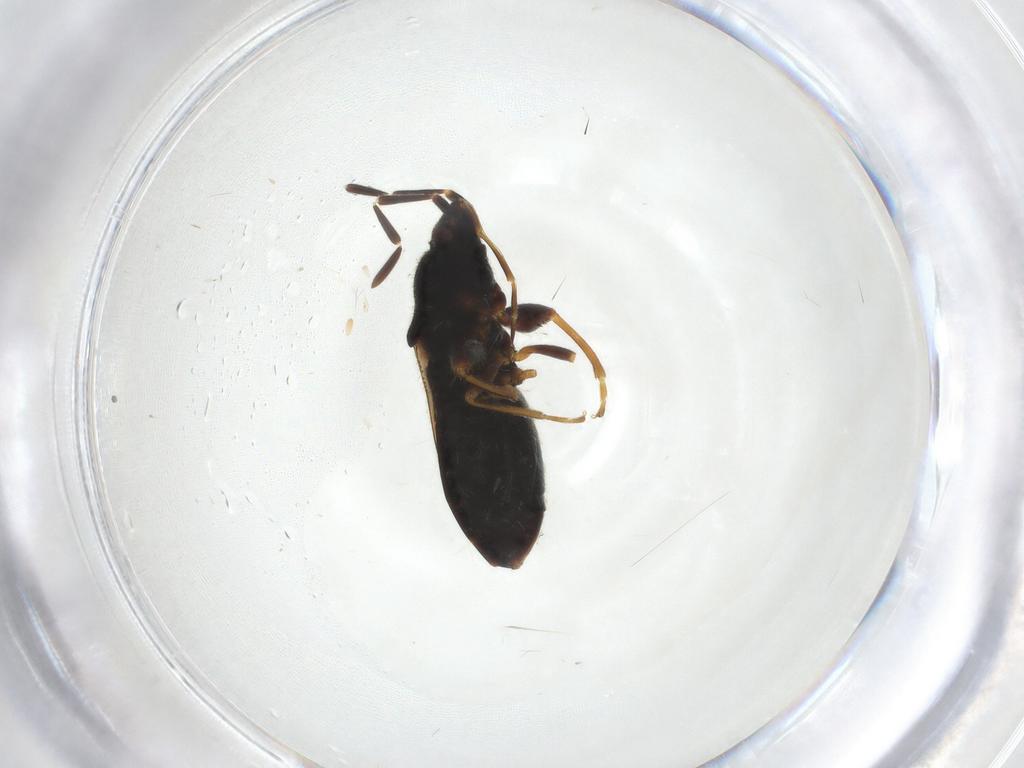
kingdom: Animalia
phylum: Arthropoda
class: Insecta
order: Hemiptera
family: Rhyparochromidae
